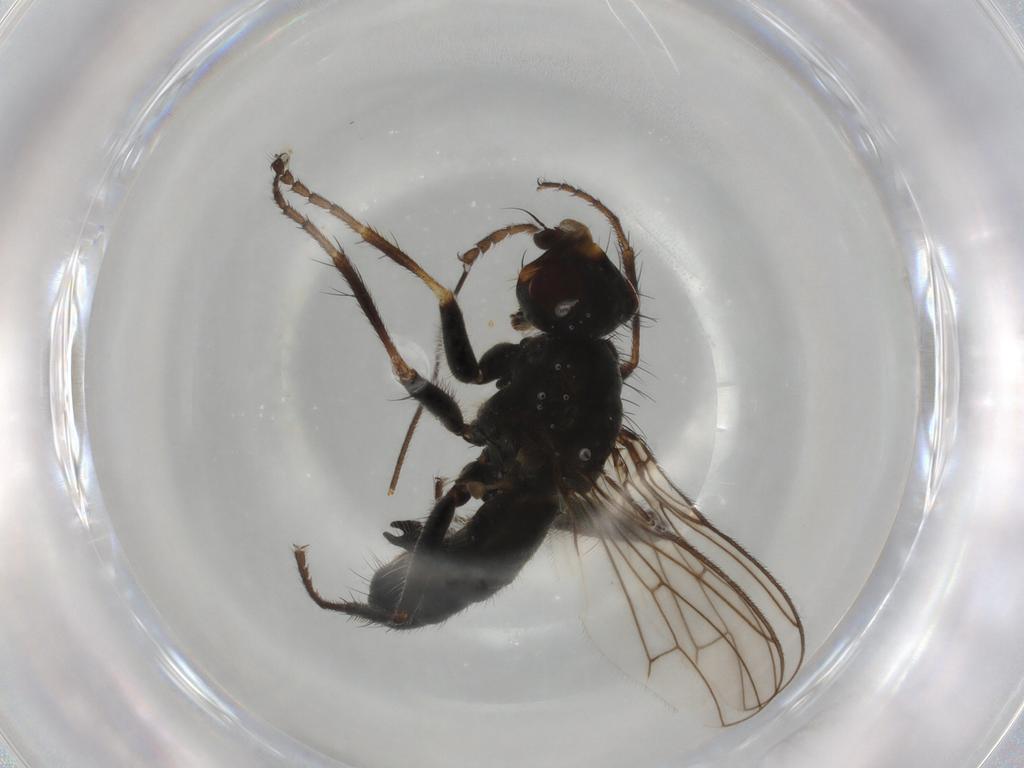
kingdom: Animalia
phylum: Arthropoda
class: Insecta
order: Diptera
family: Scathophagidae
